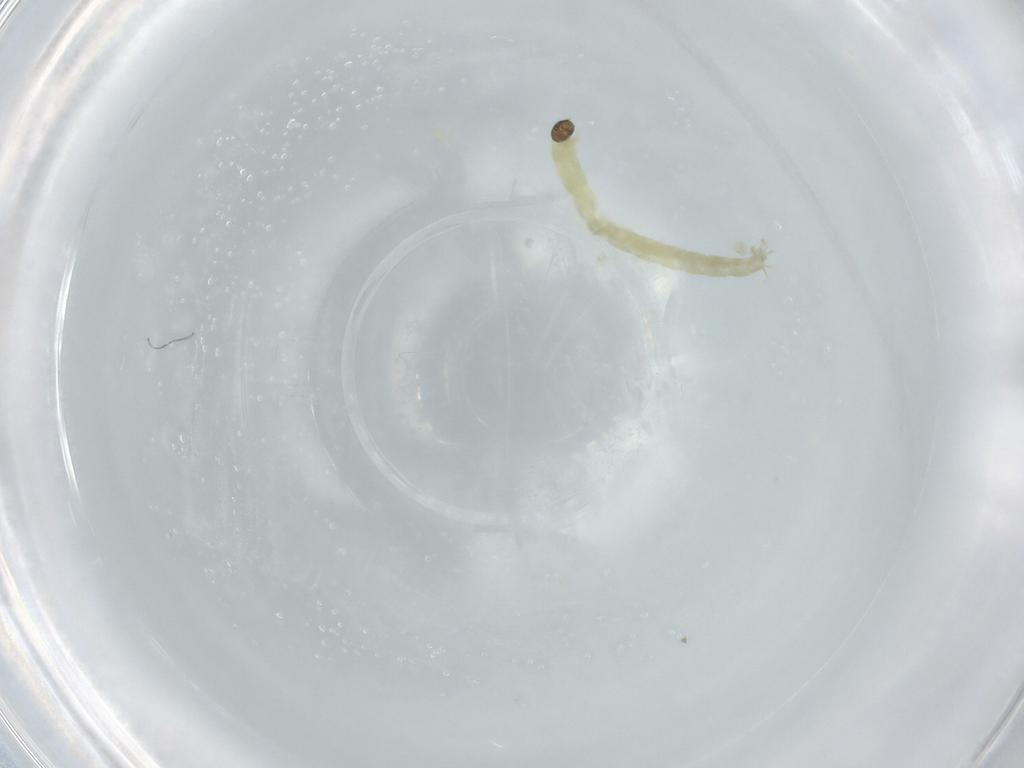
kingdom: Animalia
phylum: Arthropoda
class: Insecta
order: Diptera
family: Chironomidae
